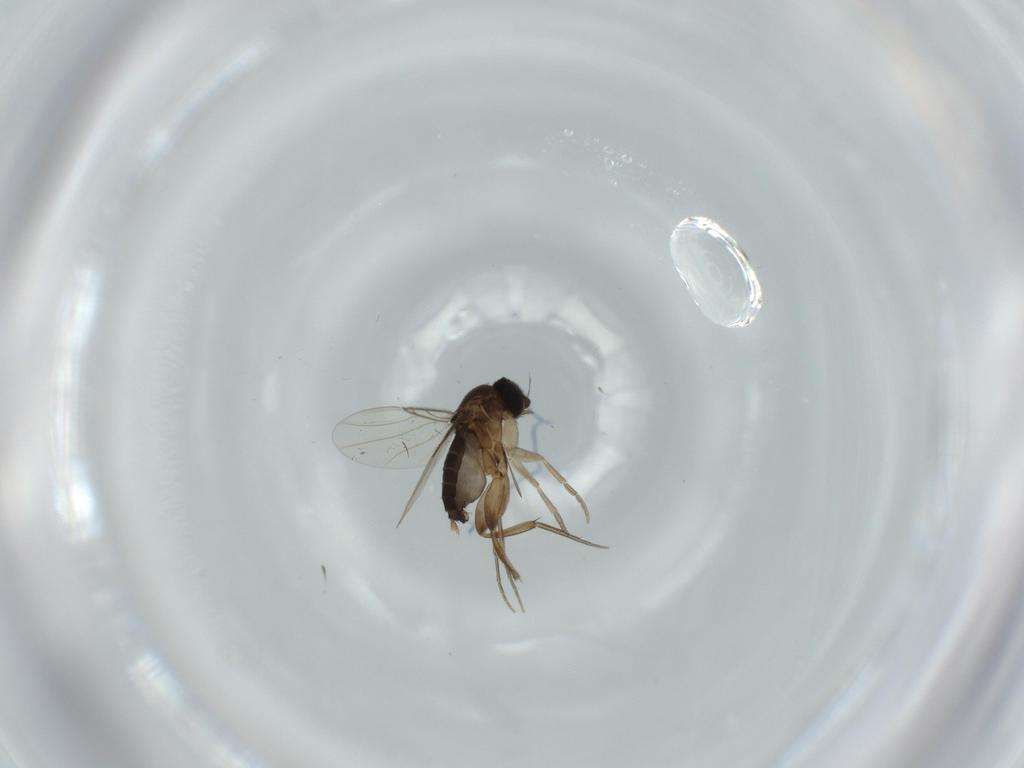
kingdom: Animalia
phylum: Arthropoda
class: Insecta
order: Diptera
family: Phoridae
